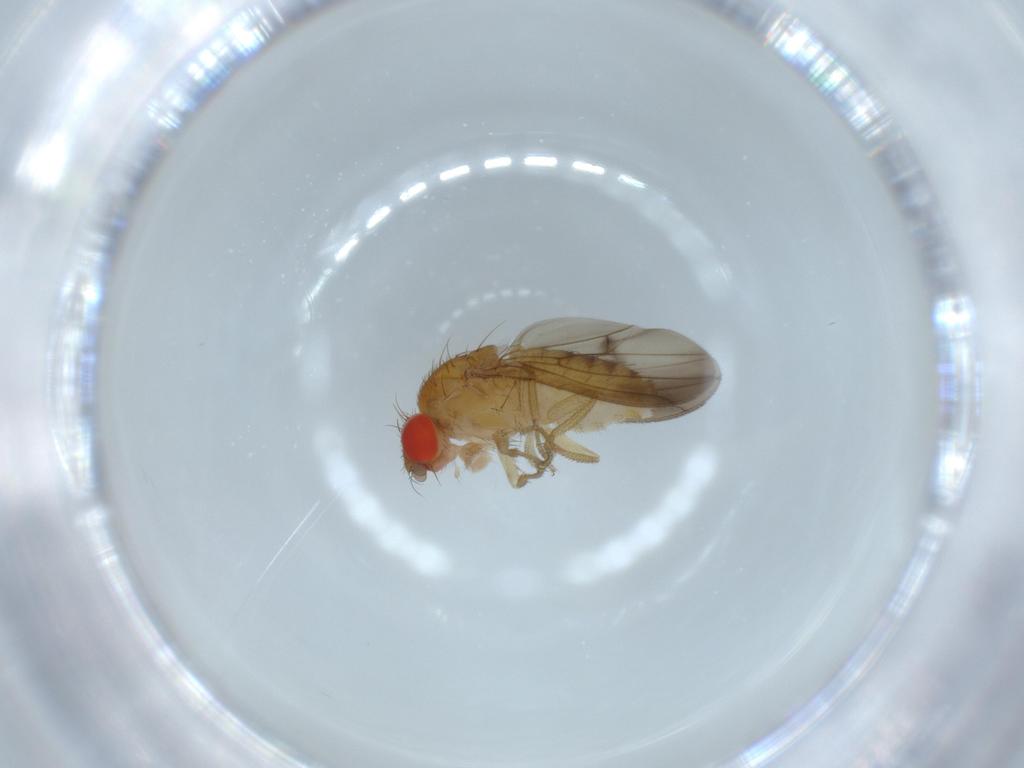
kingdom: Animalia
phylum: Arthropoda
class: Insecta
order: Diptera
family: Drosophilidae
